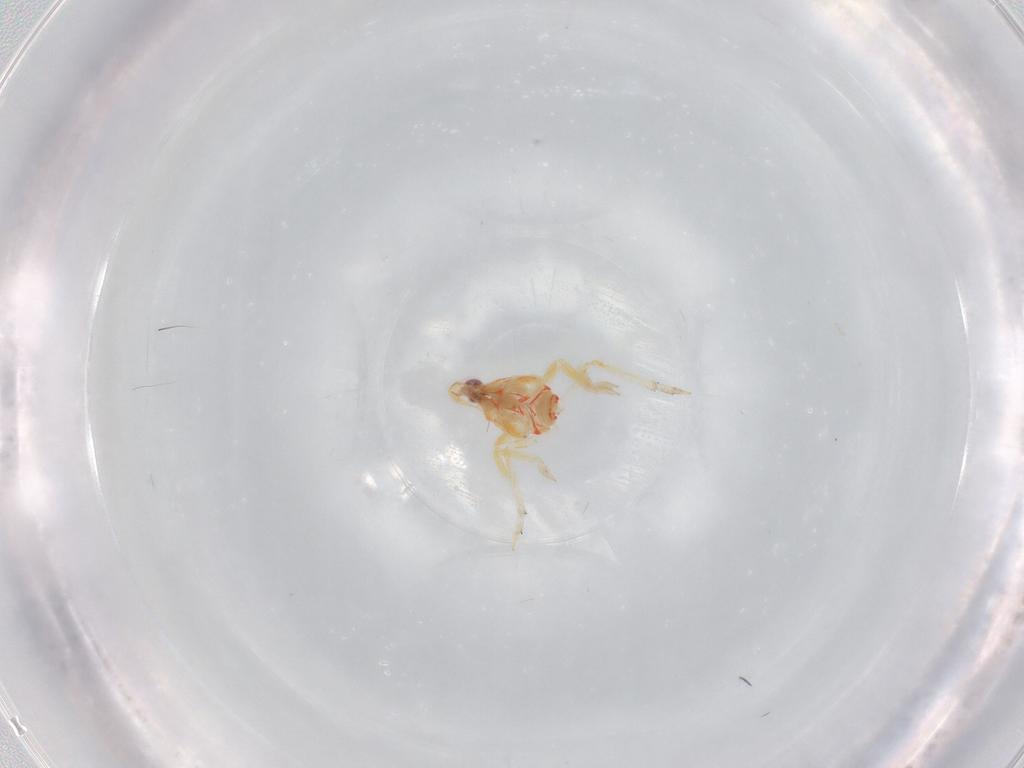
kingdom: Animalia
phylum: Arthropoda
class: Insecta
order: Hemiptera
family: Tropiduchidae
